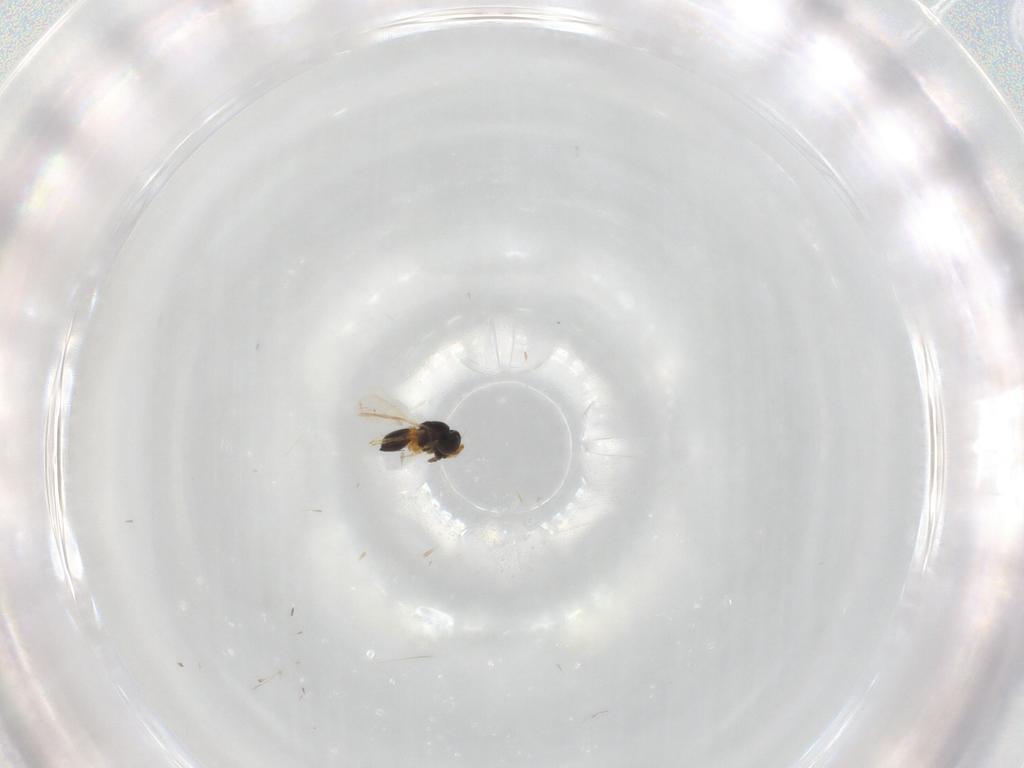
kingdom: Animalia
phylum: Arthropoda
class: Insecta
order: Hymenoptera
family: Scelionidae
